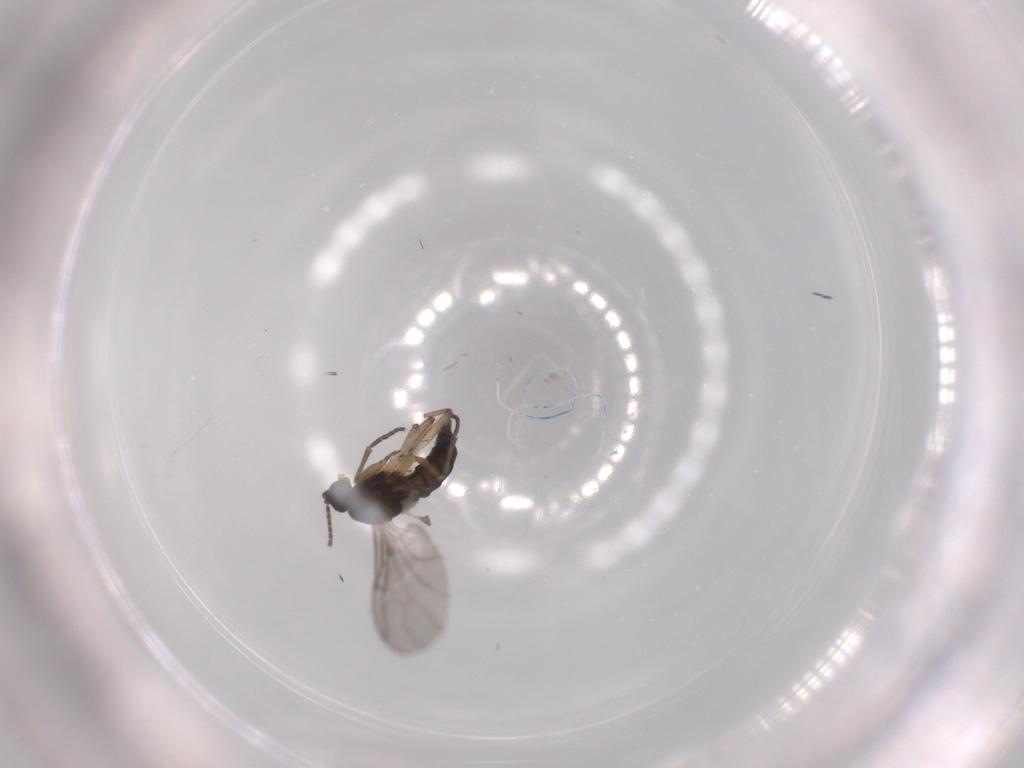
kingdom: Animalia
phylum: Arthropoda
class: Insecta
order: Diptera
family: Sciaridae
